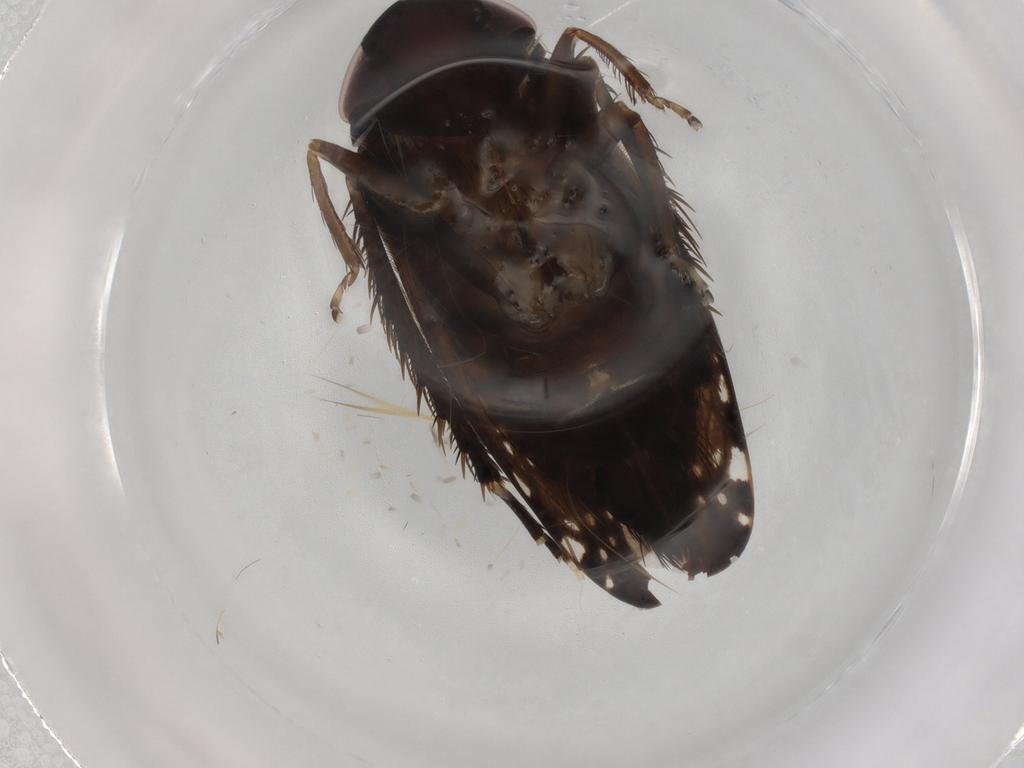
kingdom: Animalia
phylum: Arthropoda
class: Insecta
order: Hemiptera
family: Cicadellidae
